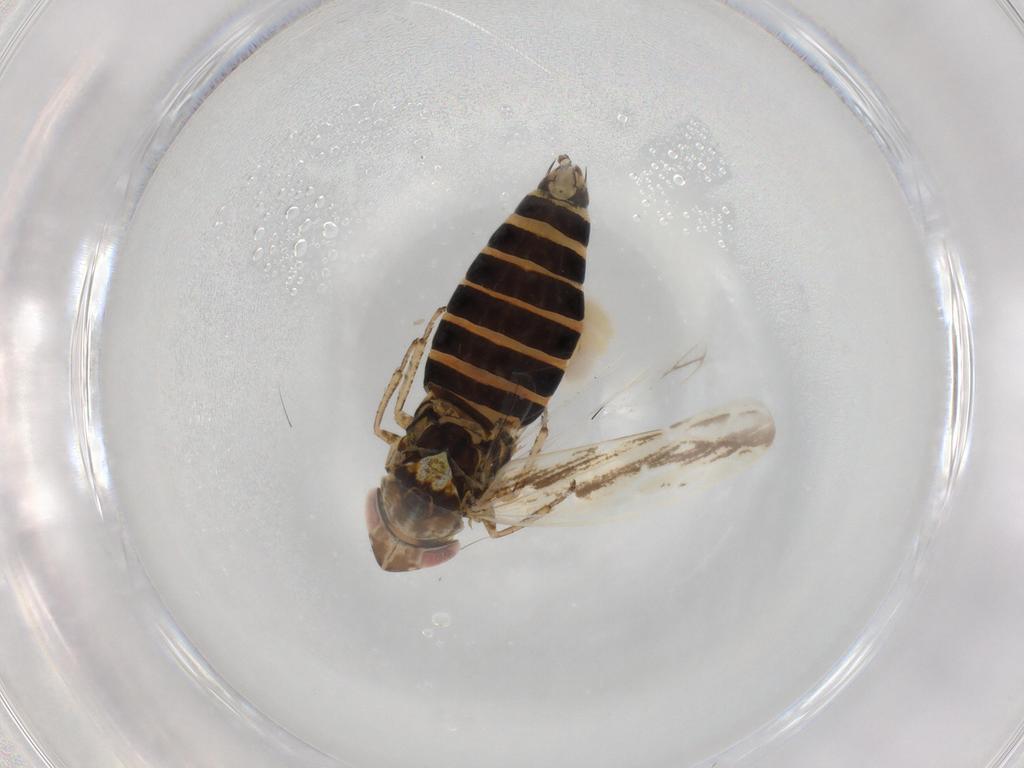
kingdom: Animalia
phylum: Arthropoda
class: Insecta
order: Hemiptera
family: Cicadellidae
